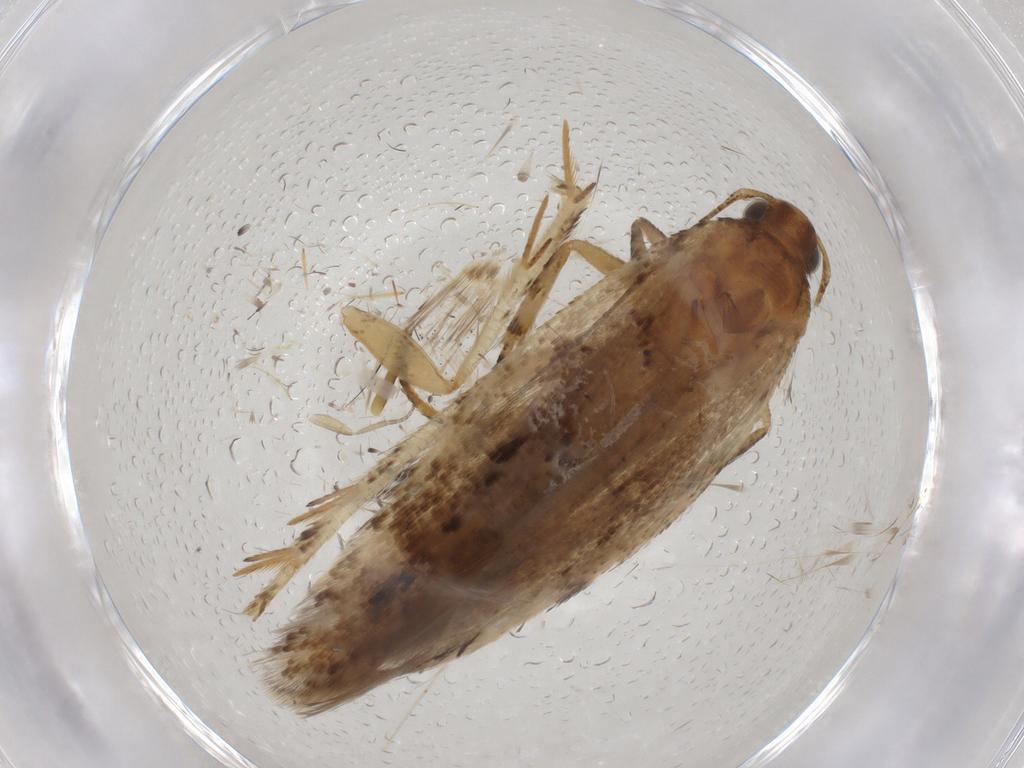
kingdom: Animalia
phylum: Arthropoda
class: Insecta
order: Lepidoptera
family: Gelechiidae
